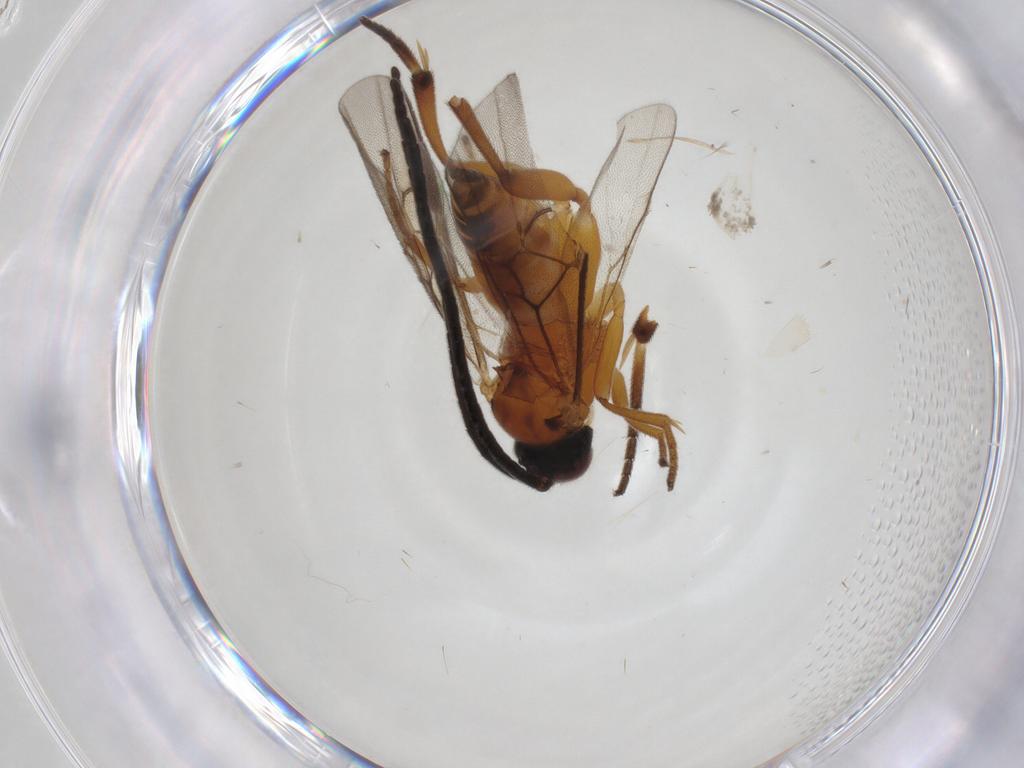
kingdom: Animalia
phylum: Arthropoda
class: Insecta
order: Hymenoptera
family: Braconidae
